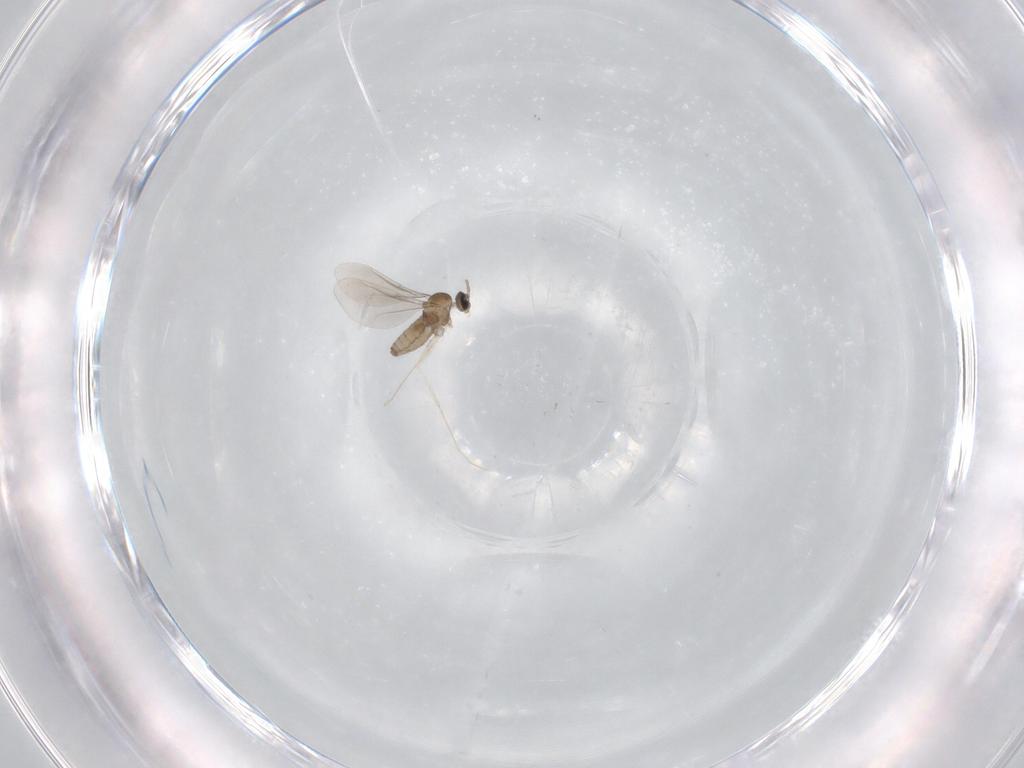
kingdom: Animalia
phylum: Arthropoda
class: Insecta
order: Diptera
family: Cecidomyiidae
